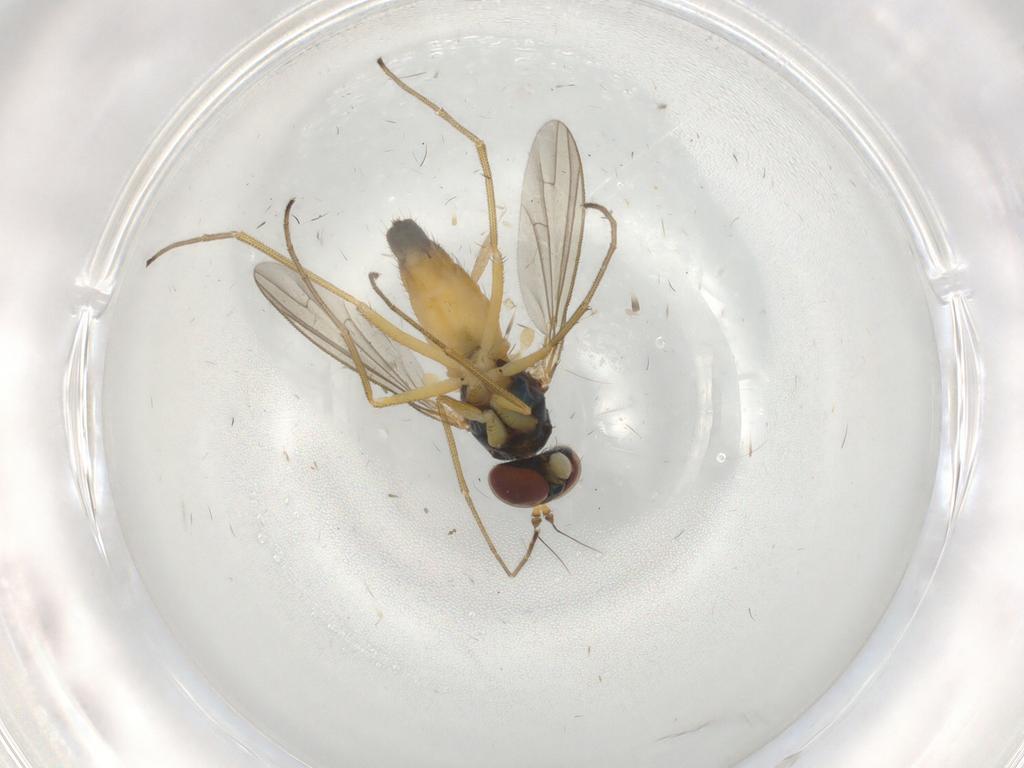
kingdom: Animalia
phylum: Arthropoda
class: Insecta
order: Diptera
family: Dolichopodidae
